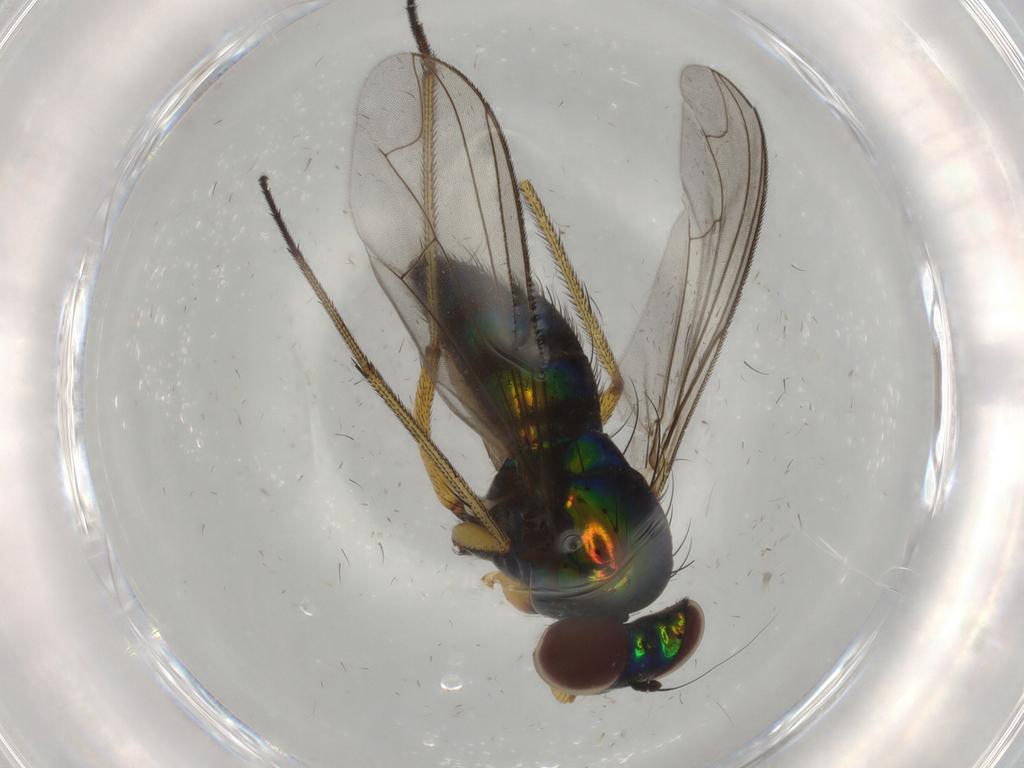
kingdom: Animalia
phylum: Arthropoda
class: Insecta
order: Diptera
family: Dolichopodidae
